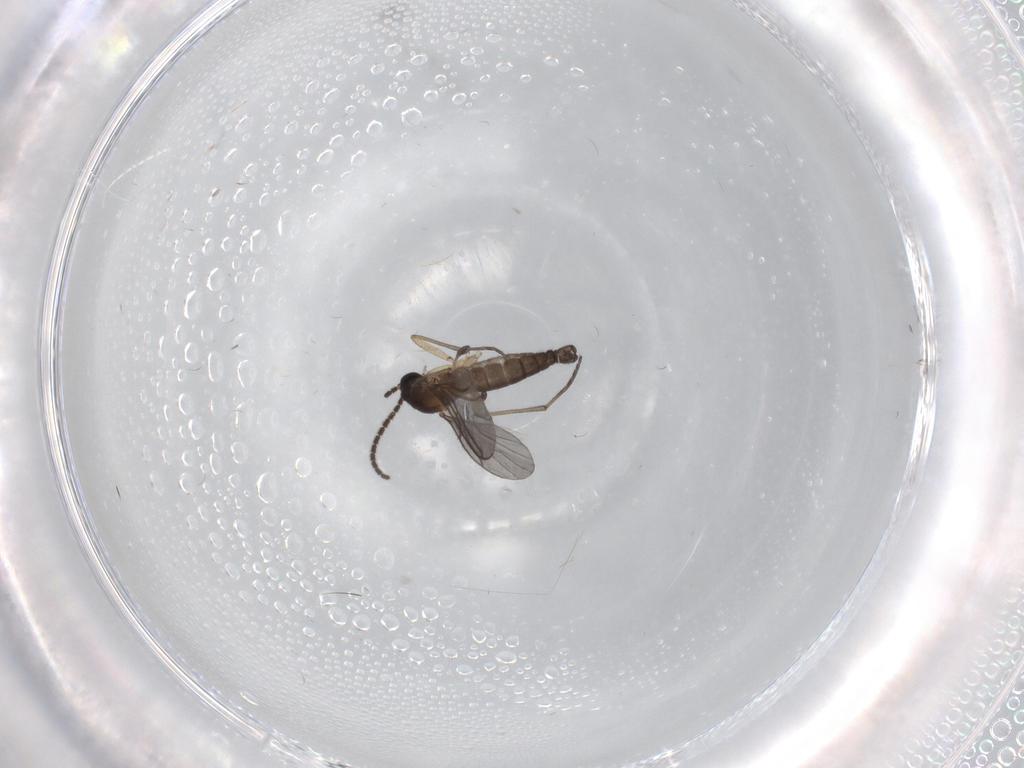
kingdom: Animalia
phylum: Arthropoda
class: Insecta
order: Diptera
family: Sciaridae
